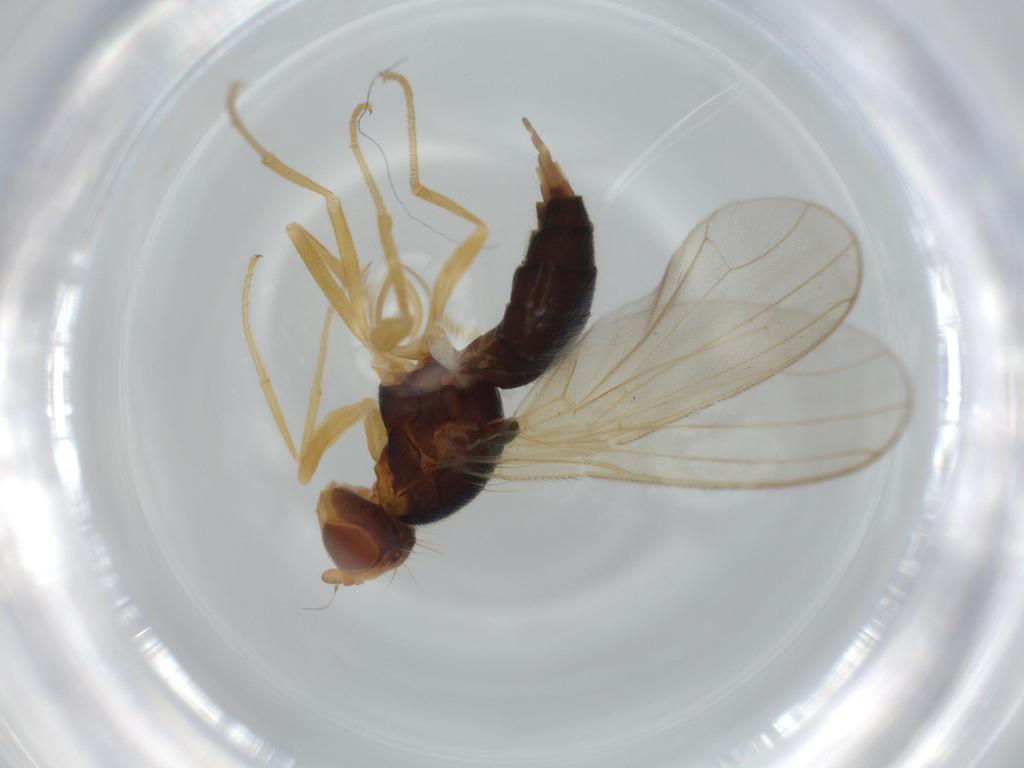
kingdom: Animalia
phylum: Arthropoda
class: Insecta
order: Diptera
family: Psilidae
